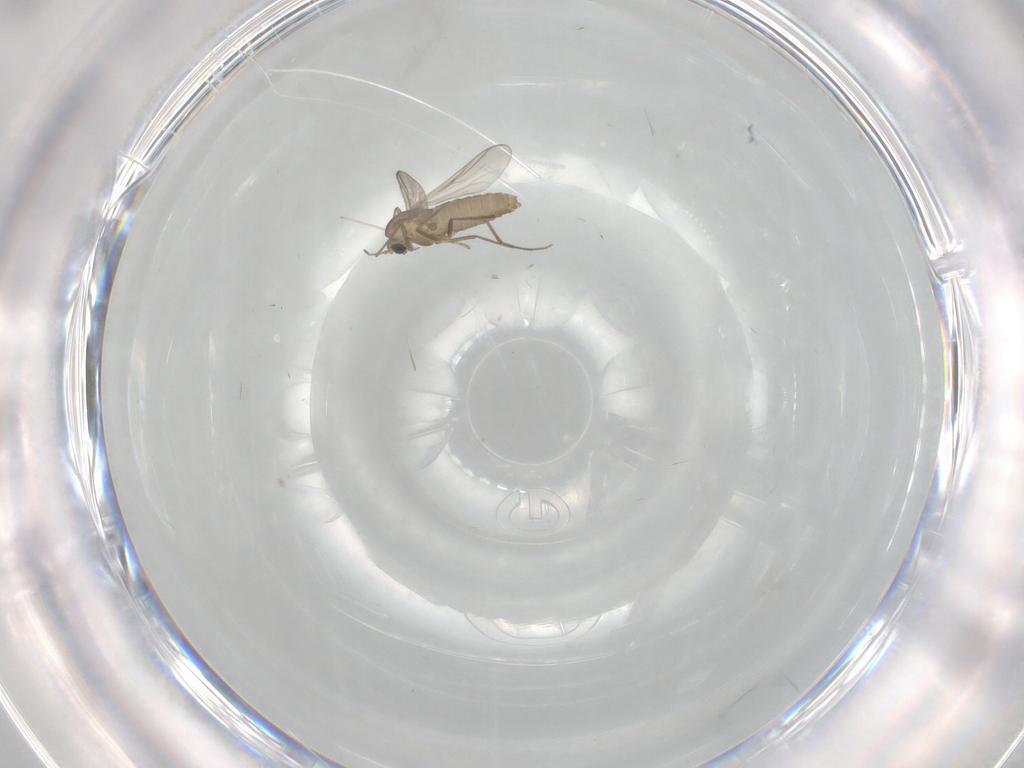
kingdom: Animalia
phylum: Arthropoda
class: Insecta
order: Diptera
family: Chironomidae
